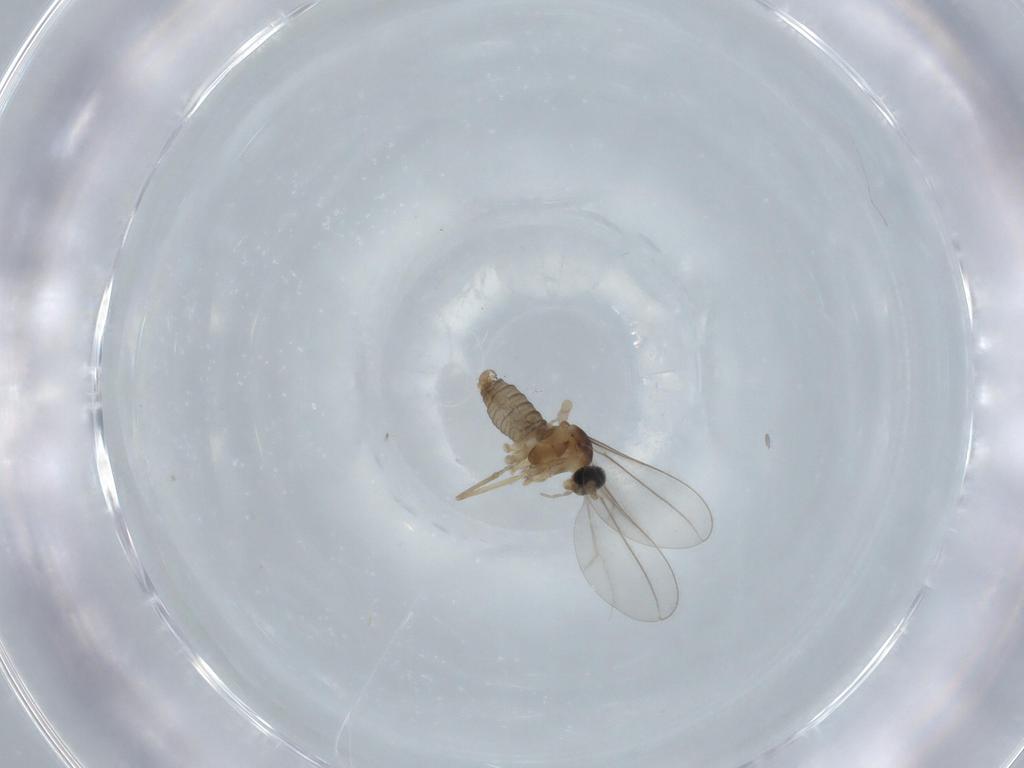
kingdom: Animalia
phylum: Arthropoda
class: Insecta
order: Diptera
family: Cecidomyiidae
